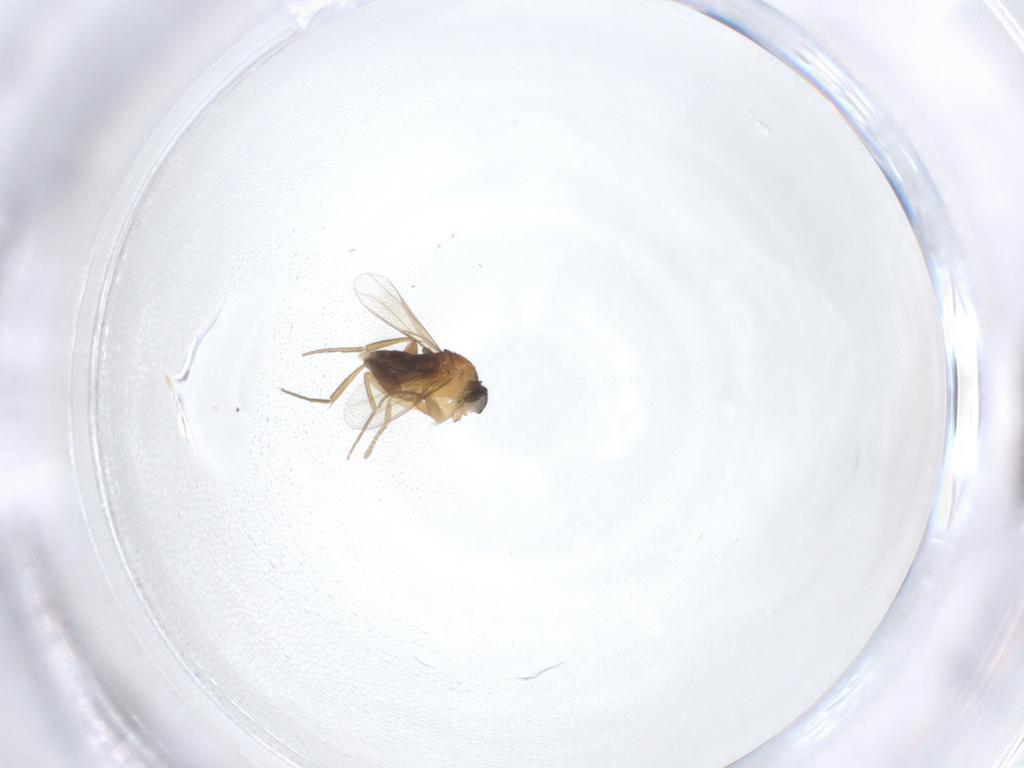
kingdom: Animalia
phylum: Arthropoda
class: Insecta
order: Diptera
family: Phoridae
